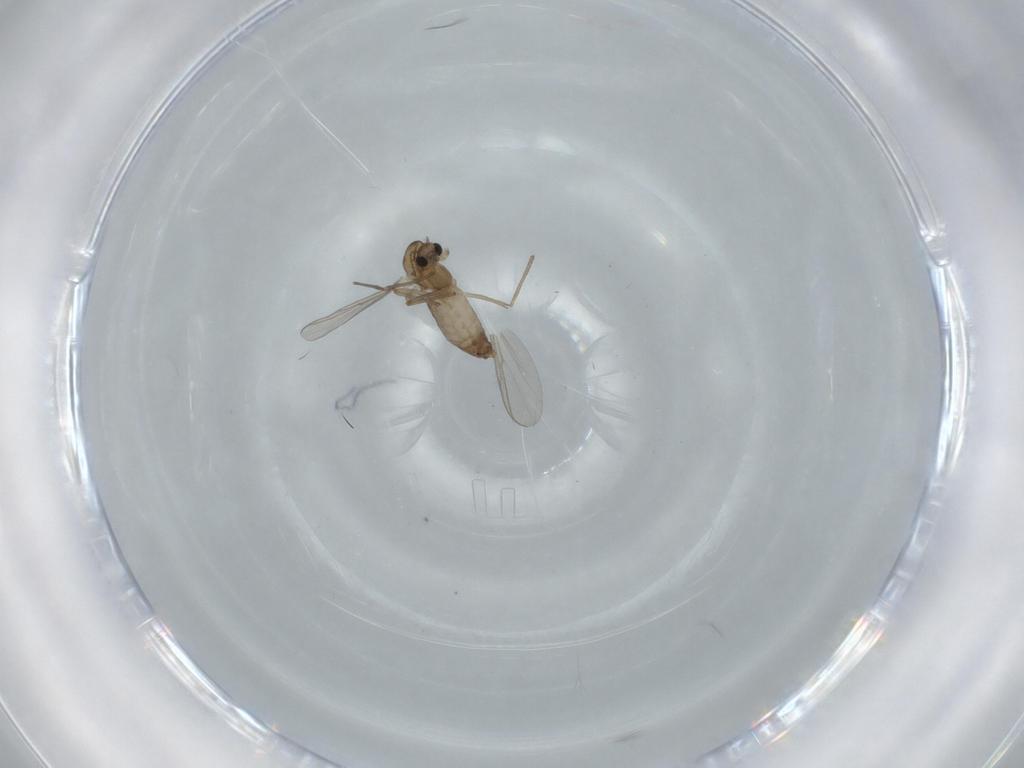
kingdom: Animalia
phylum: Arthropoda
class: Insecta
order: Diptera
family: Chironomidae
